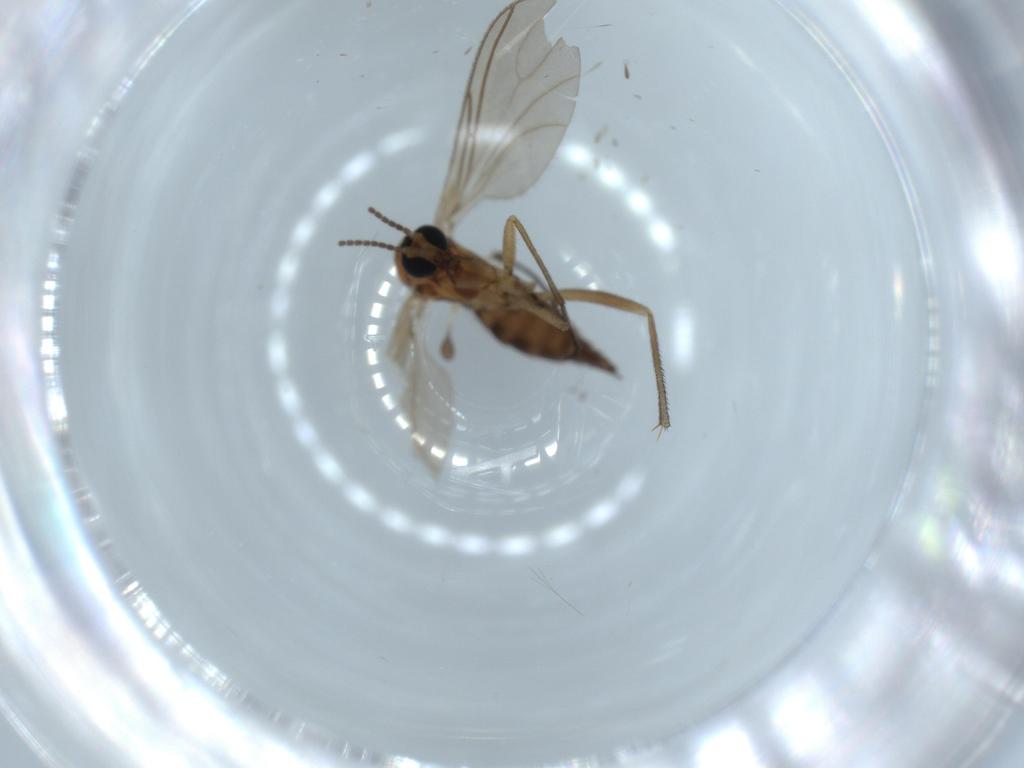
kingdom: Animalia
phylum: Arthropoda
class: Insecta
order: Diptera
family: Sciaridae
